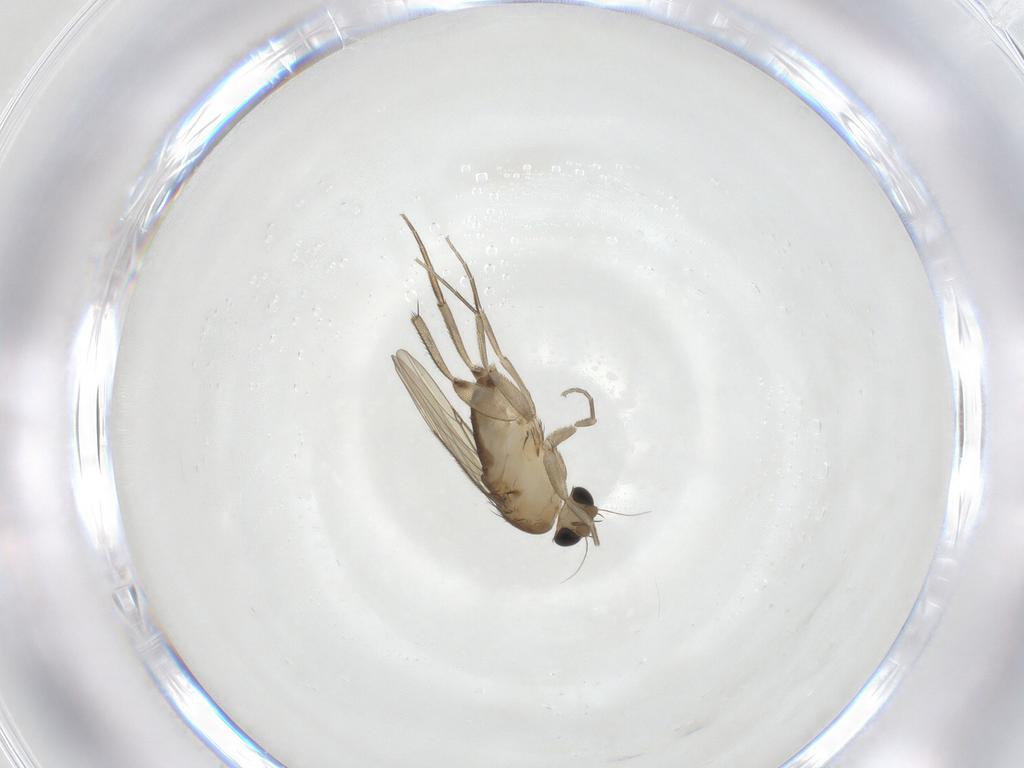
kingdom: Animalia
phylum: Arthropoda
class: Insecta
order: Diptera
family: Phoridae
